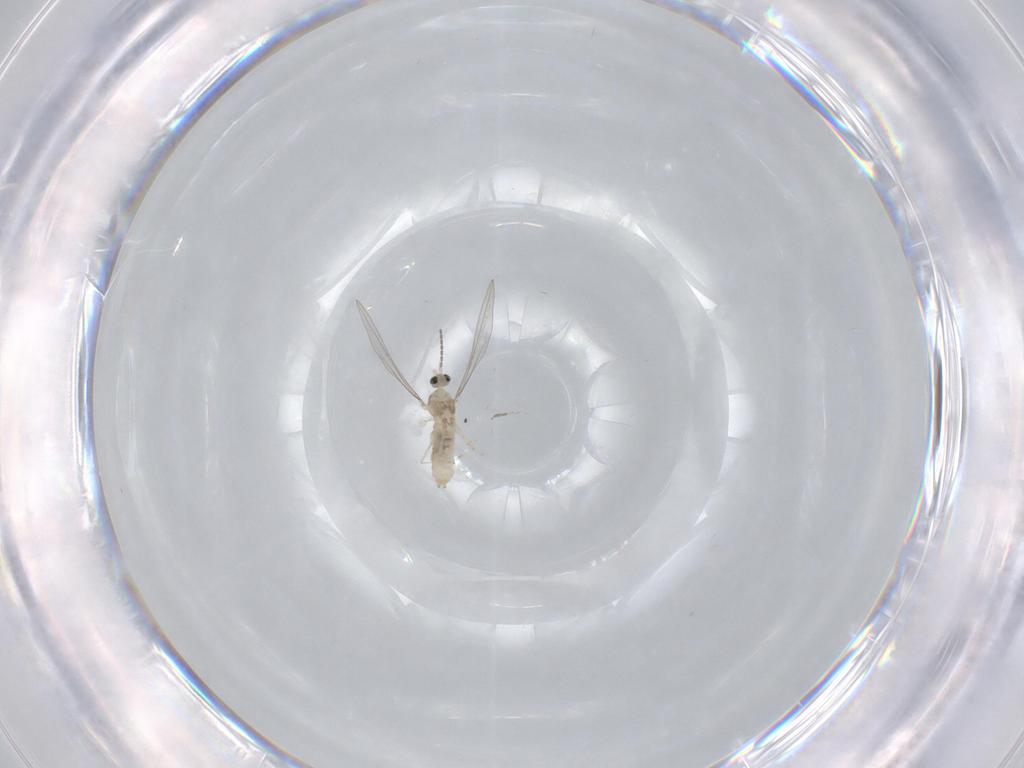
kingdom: Animalia
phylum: Arthropoda
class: Insecta
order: Diptera
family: Cecidomyiidae
